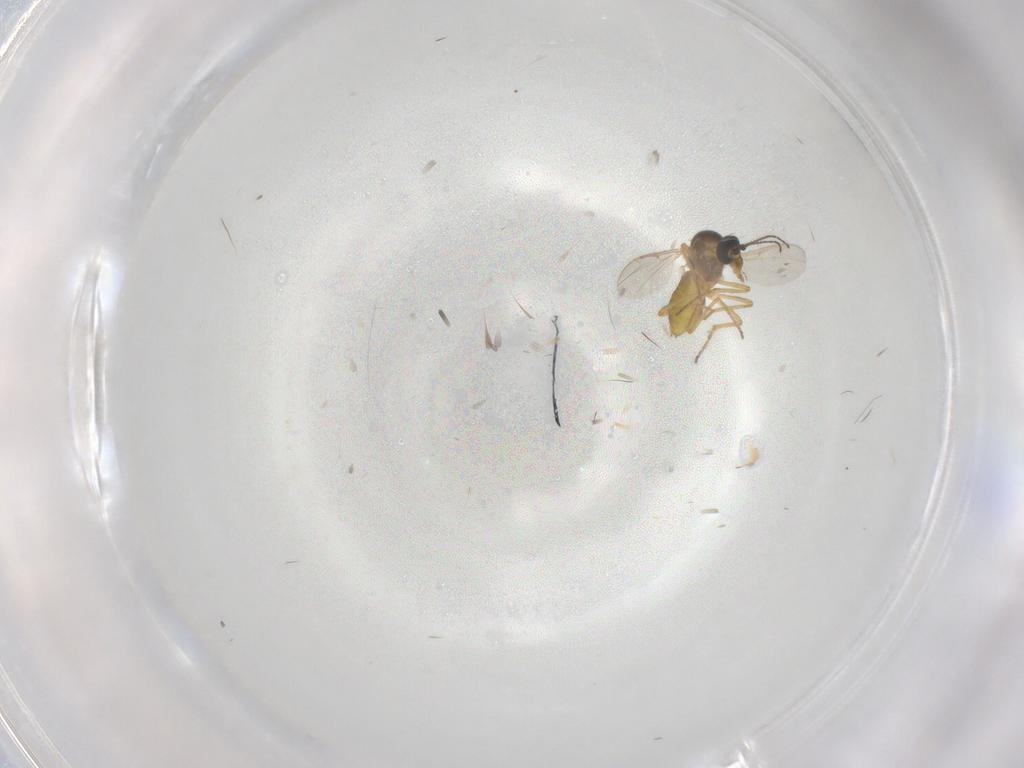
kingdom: Animalia
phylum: Arthropoda
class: Insecta
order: Diptera
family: Ceratopogonidae
